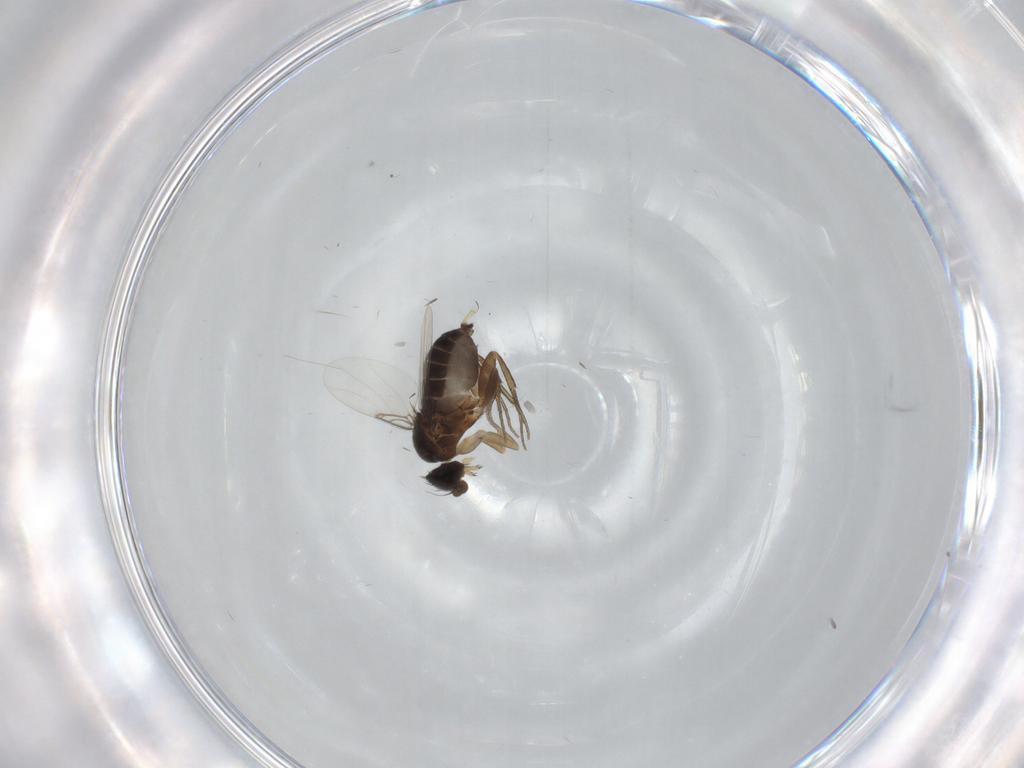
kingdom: Animalia
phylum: Arthropoda
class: Insecta
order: Diptera
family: Phoridae
